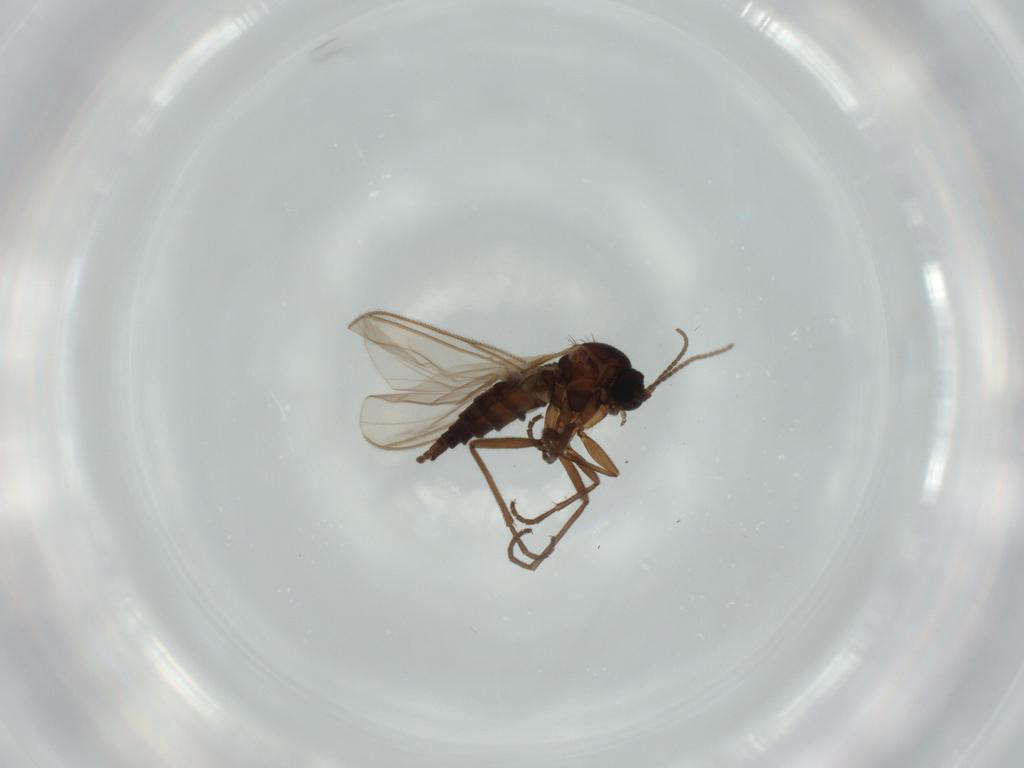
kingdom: Animalia
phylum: Arthropoda
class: Insecta
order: Diptera
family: Sciaridae
